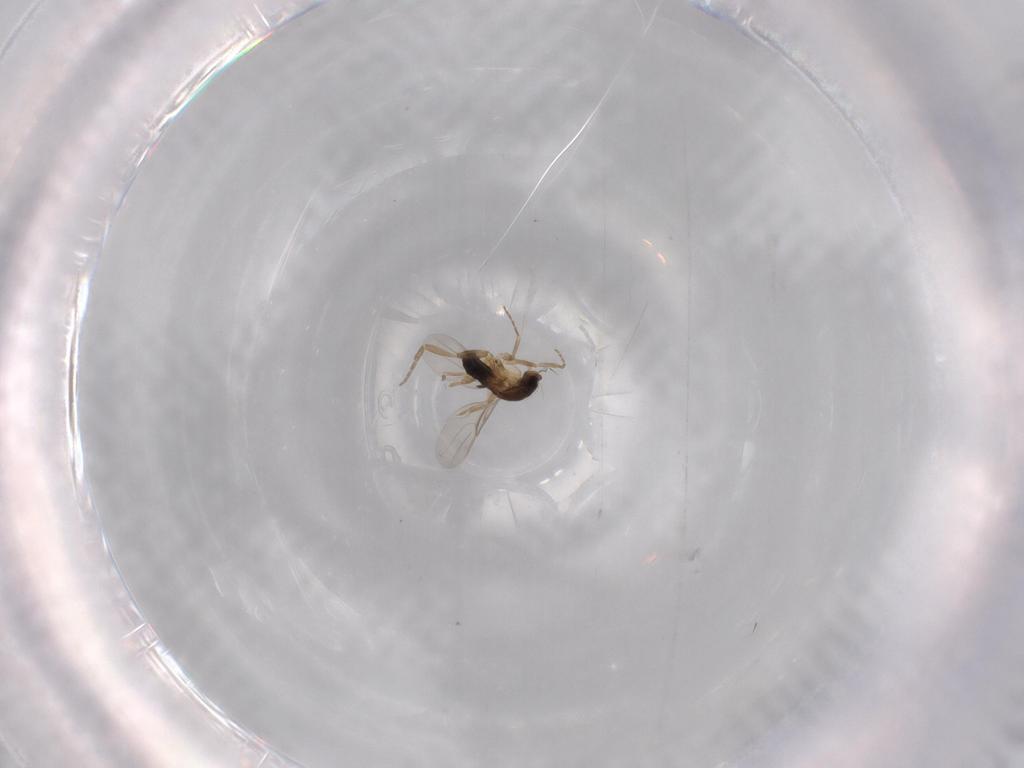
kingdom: Animalia
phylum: Arthropoda
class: Insecta
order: Diptera
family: Phoridae
